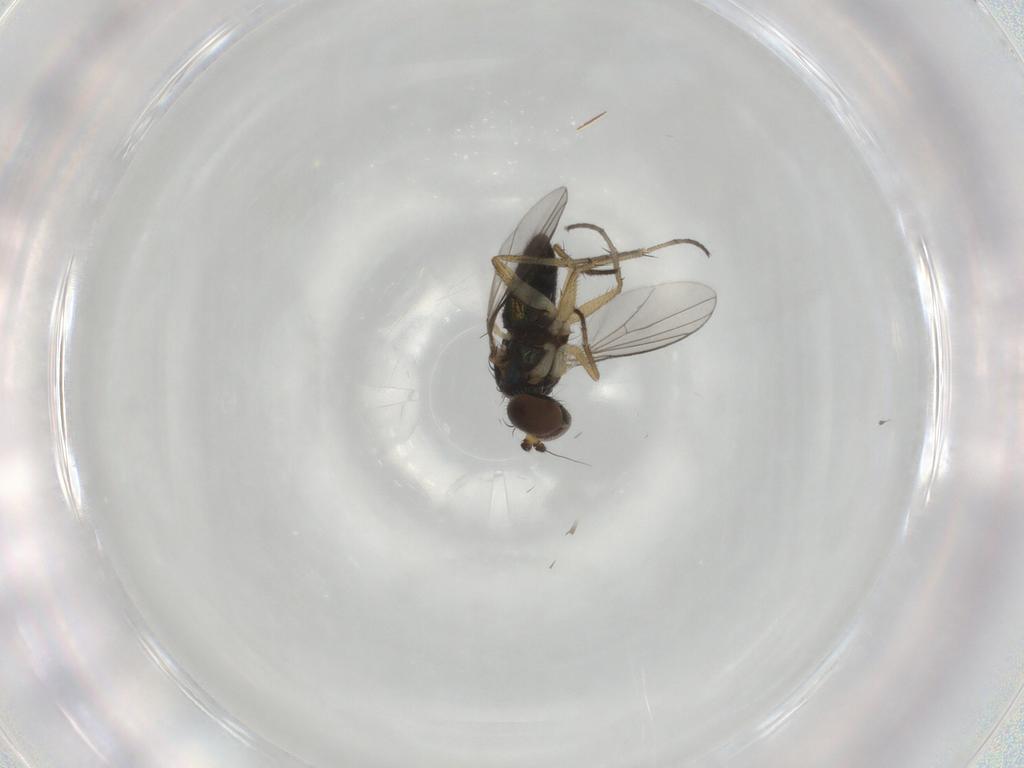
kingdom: Animalia
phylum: Arthropoda
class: Insecta
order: Diptera
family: Dolichopodidae
